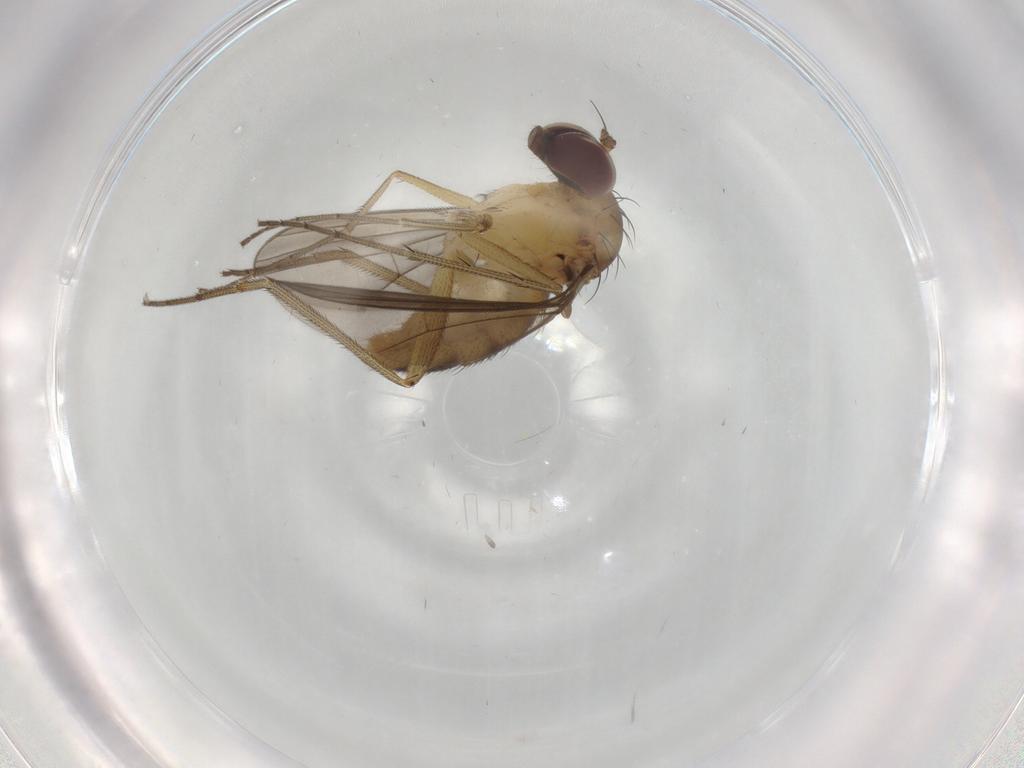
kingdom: Animalia
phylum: Arthropoda
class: Insecta
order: Diptera
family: Dolichopodidae
